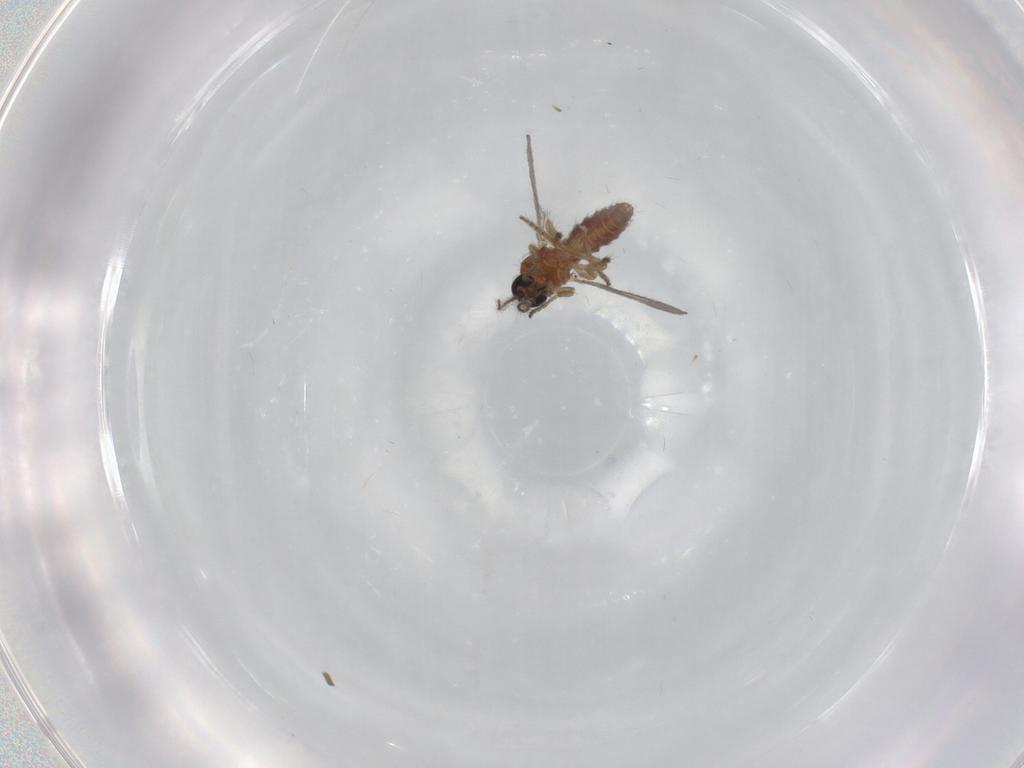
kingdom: Animalia
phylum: Arthropoda
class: Insecta
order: Diptera
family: Ceratopogonidae
